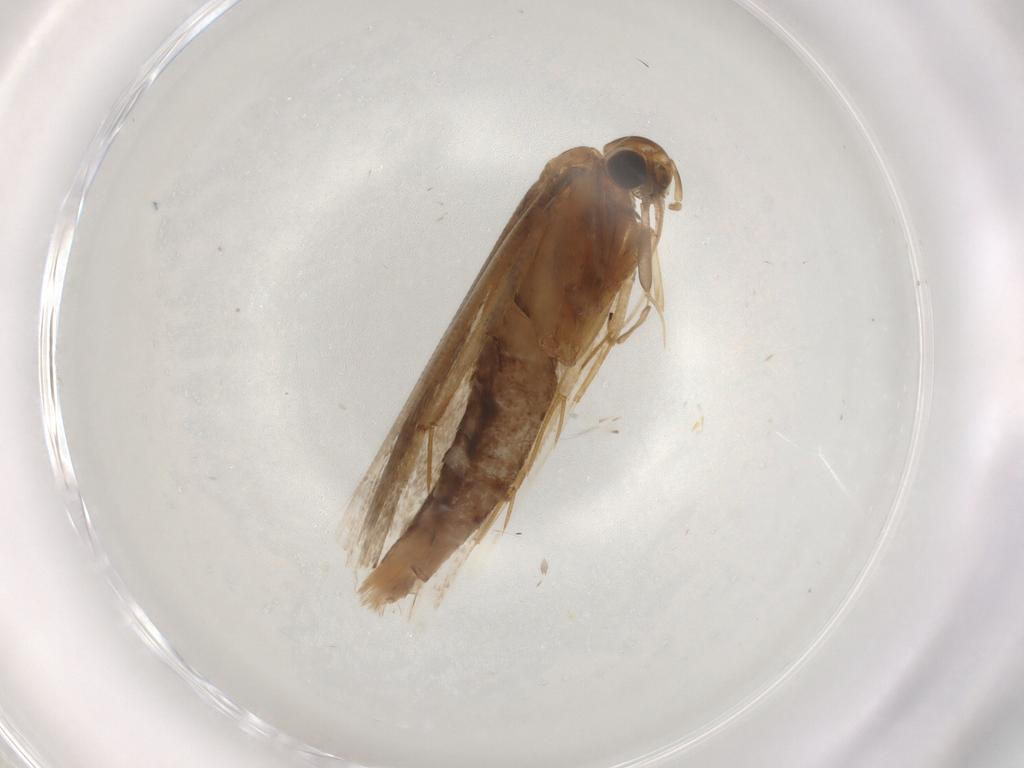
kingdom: Animalia
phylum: Arthropoda
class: Insecta
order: Lepidoptera
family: Gelechiidae
